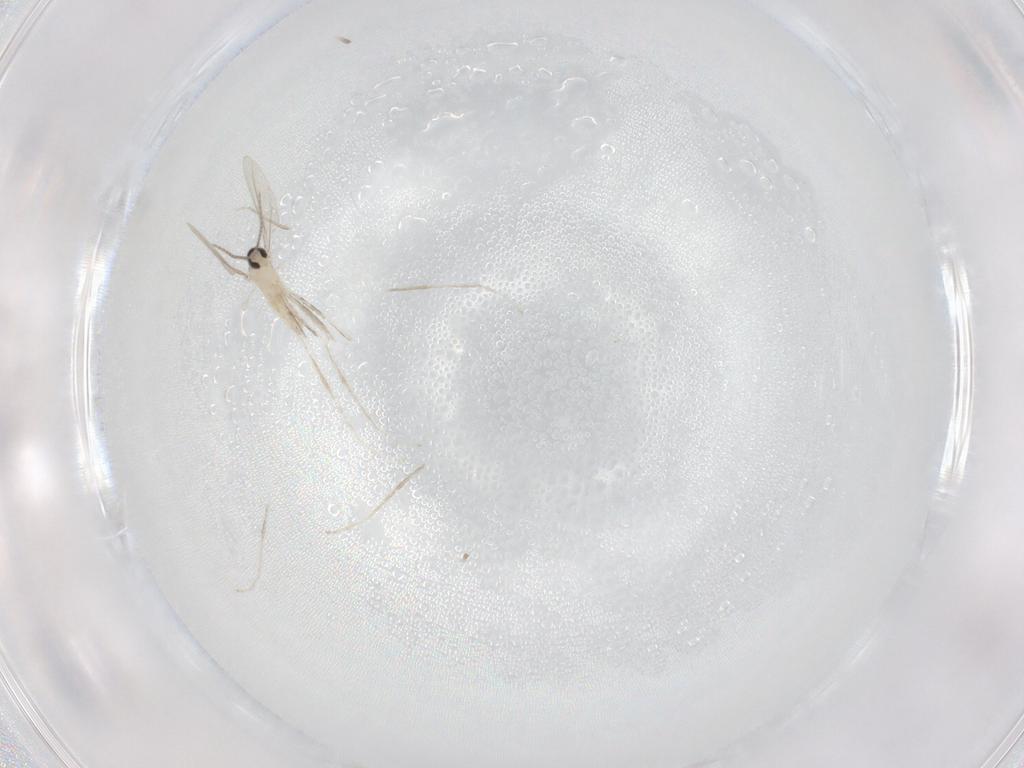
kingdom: Animalia
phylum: Arthropoda
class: Insecta
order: Diptera
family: Cecidomyiidae
